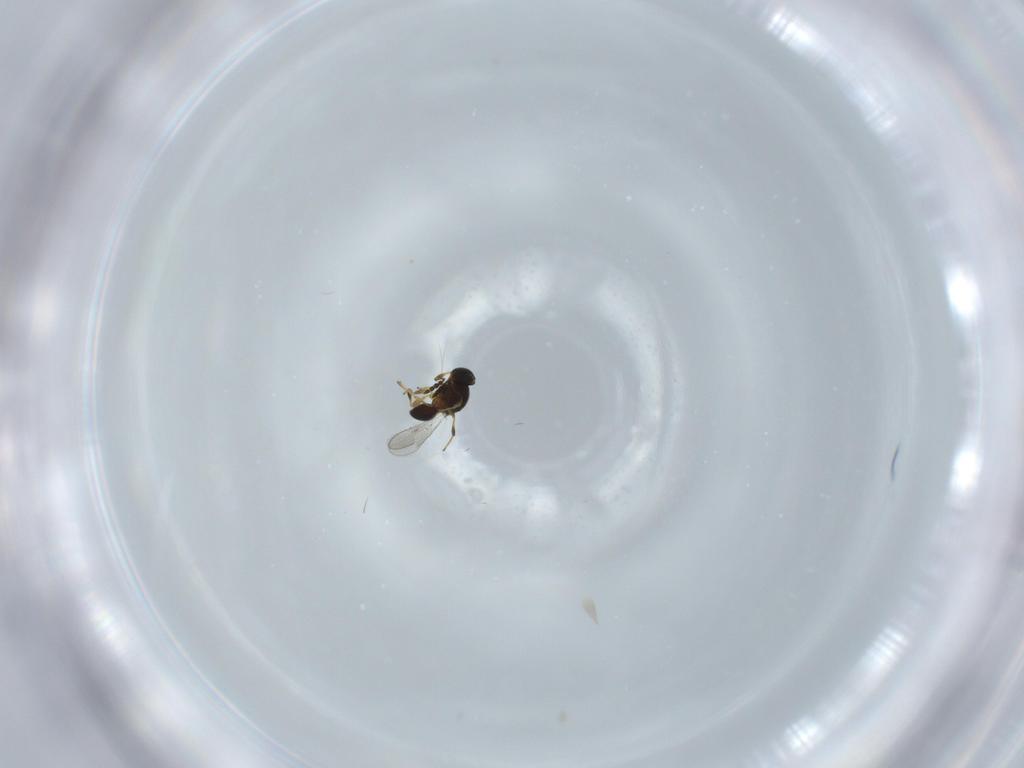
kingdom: Animalia
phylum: Arthropoda
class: Insecta
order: Hymenoptera
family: Platygastridae
